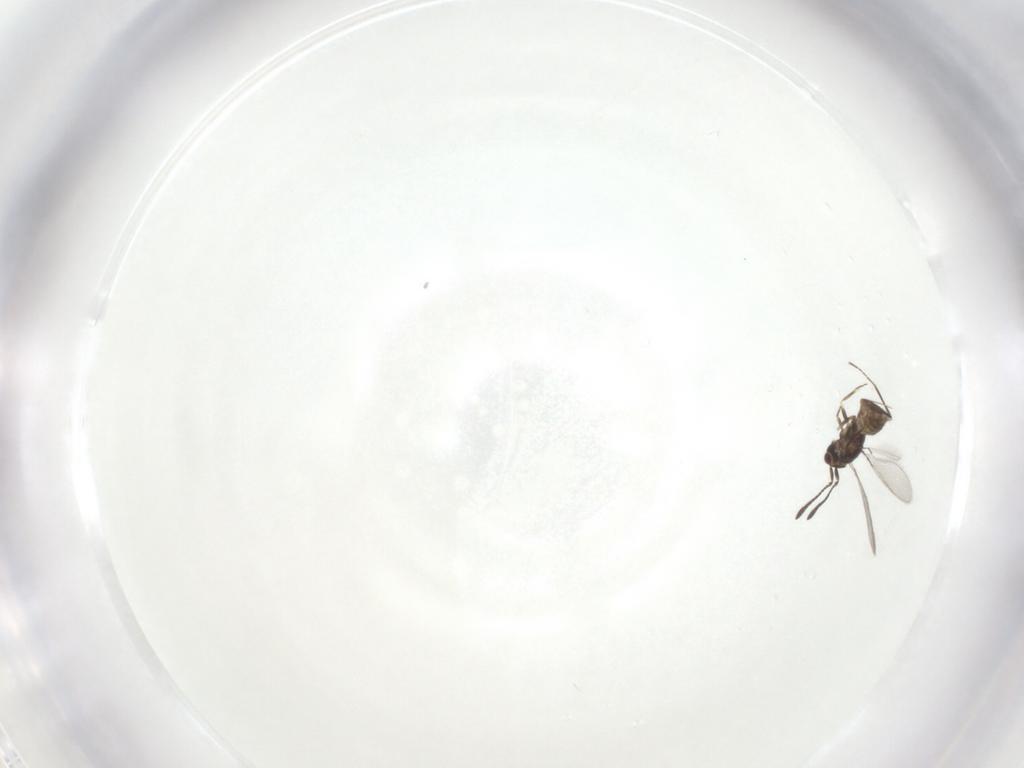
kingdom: Animalia
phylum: Arthropoda
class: Insecta
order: Hymenoptera
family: Mymaridae
